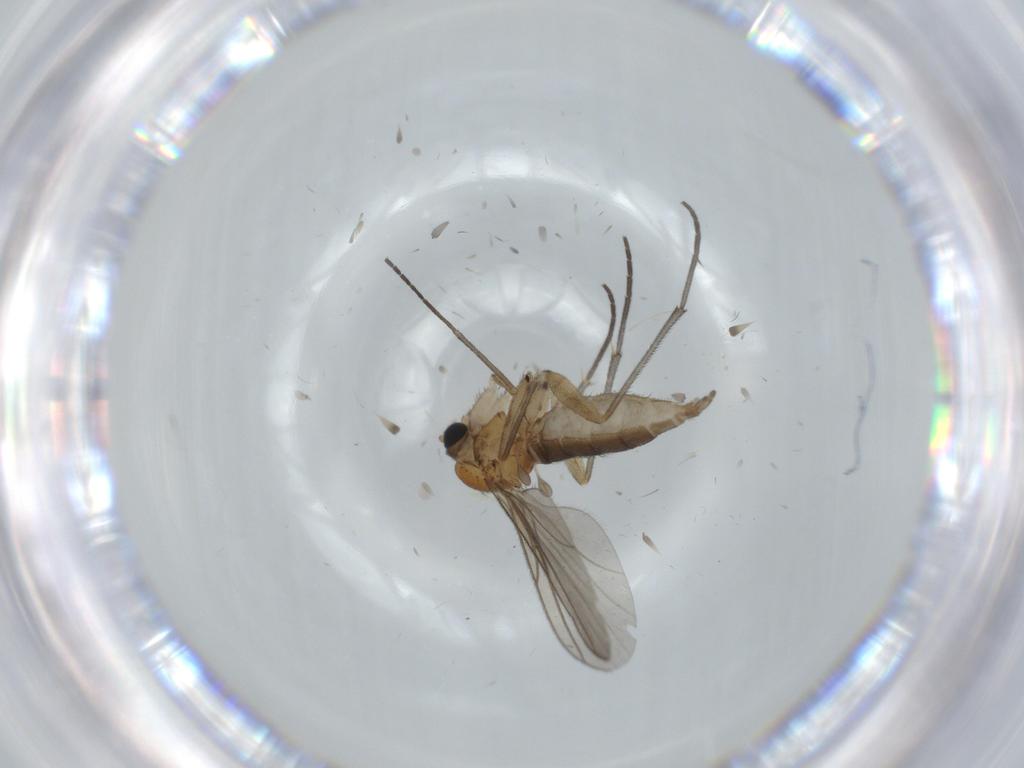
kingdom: Animalia
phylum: Arthropoda
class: Insecta
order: Diptera
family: Sciaridae
